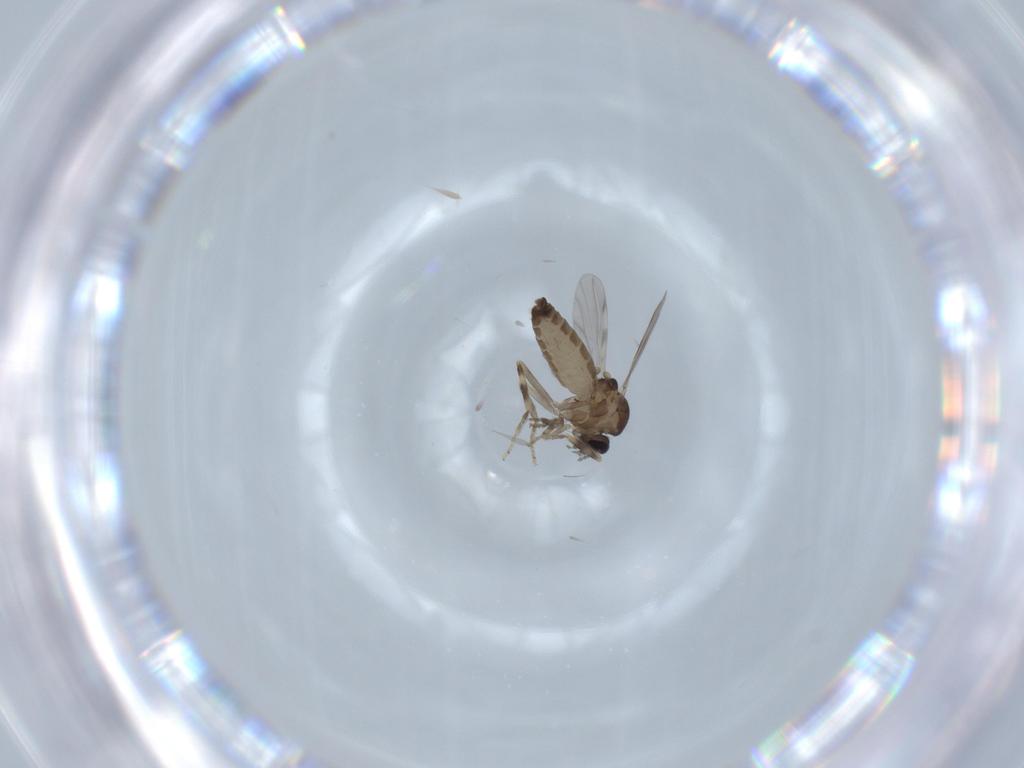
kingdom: Animalia
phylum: Arthropoda
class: Insecta
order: Diptera
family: Ceratopogonidae
